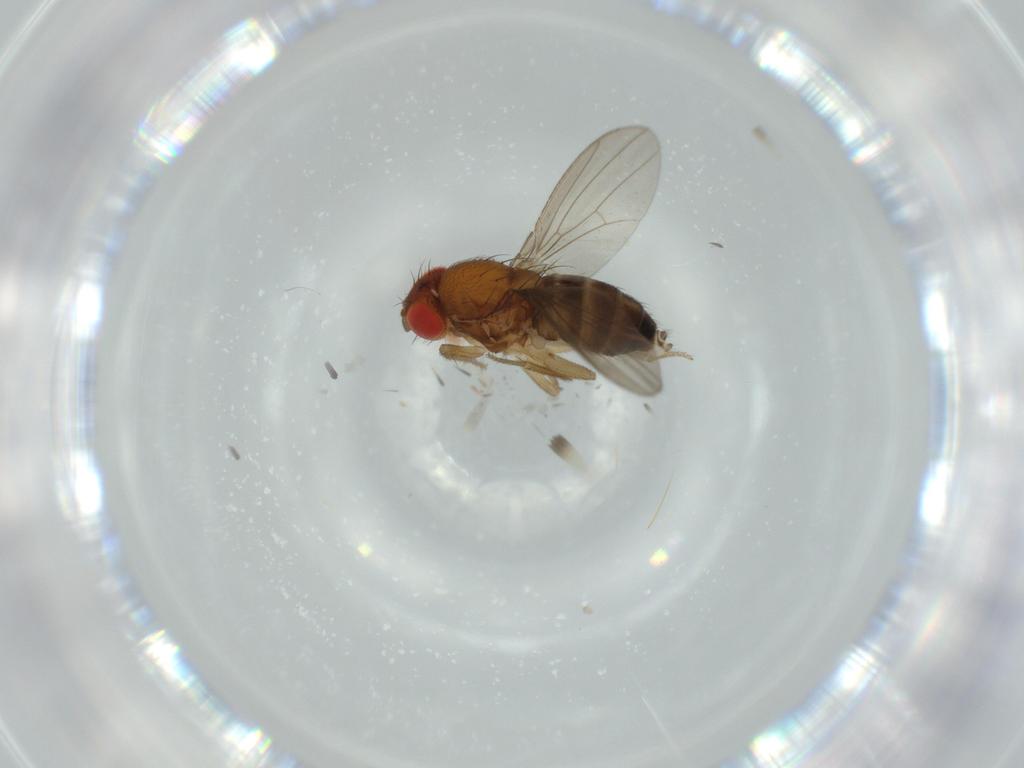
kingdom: Animalia
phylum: Arthropoda
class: Insecta
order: Diptera
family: Drosophilidae
